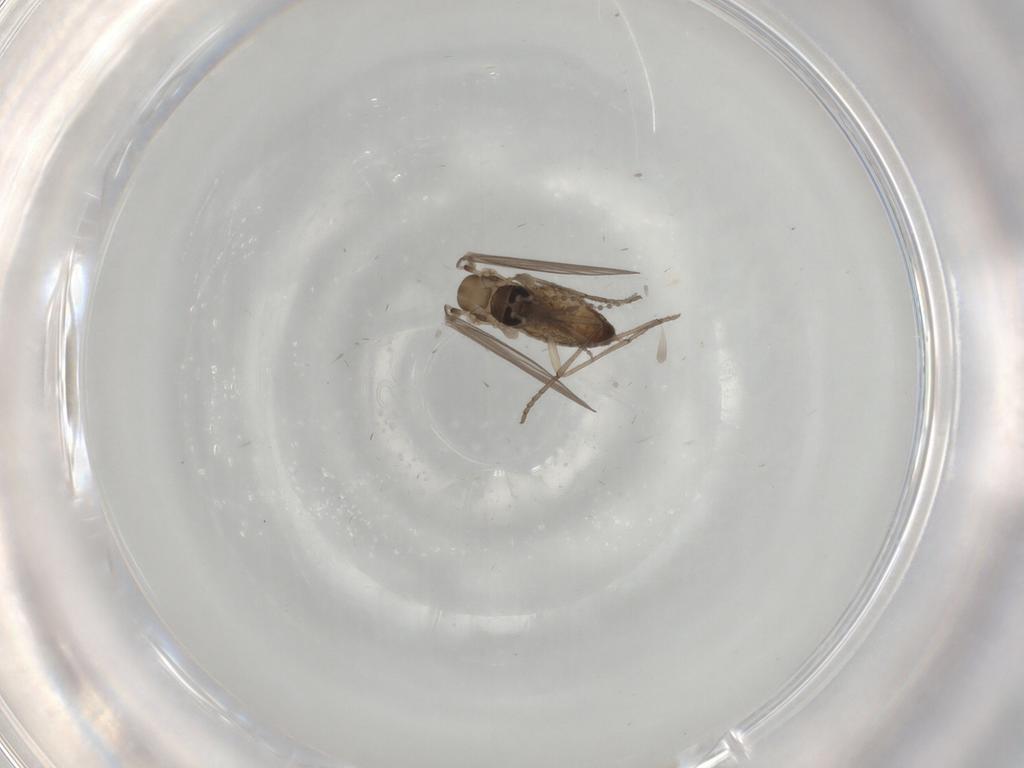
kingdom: Animalia
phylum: Arthropoda
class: Insecta
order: Diptera
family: Psychodidae
